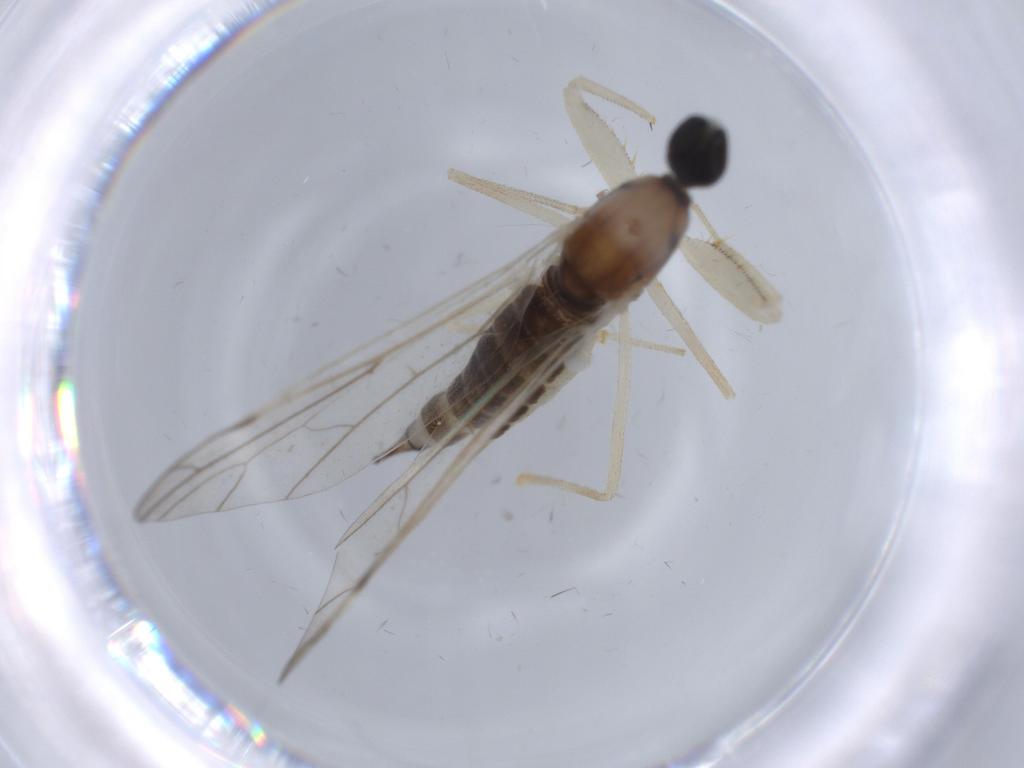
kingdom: Animalia
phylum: Arthropoda
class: Insecta
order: Diptera
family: Empididae
